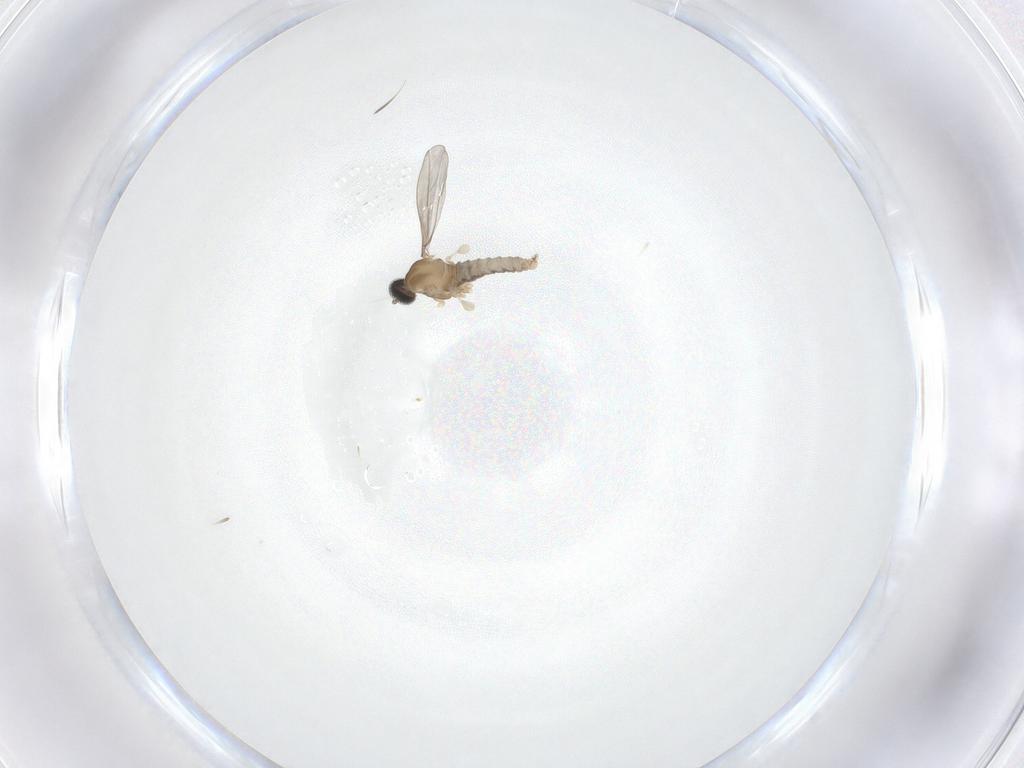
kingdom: Animalia
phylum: Arthropoda
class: Insecta
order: Diptera
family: Cecidomyiidae
